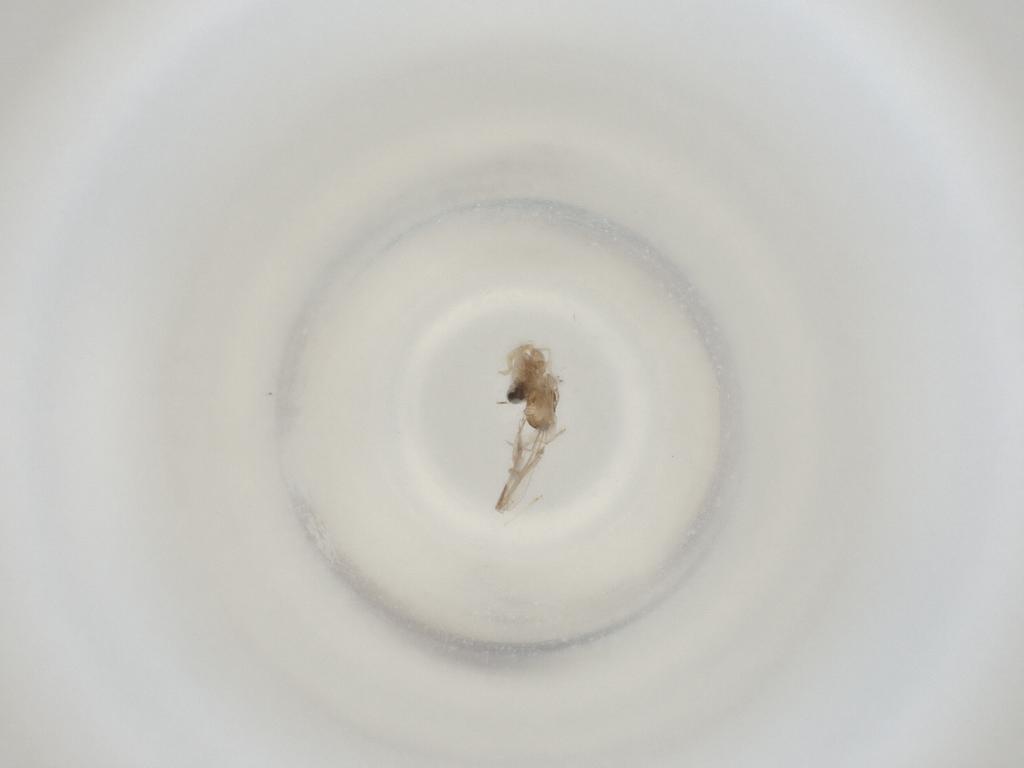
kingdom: Animalia
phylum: Arthropoda
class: Insecta
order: Diptera
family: Cecidomyiidae
